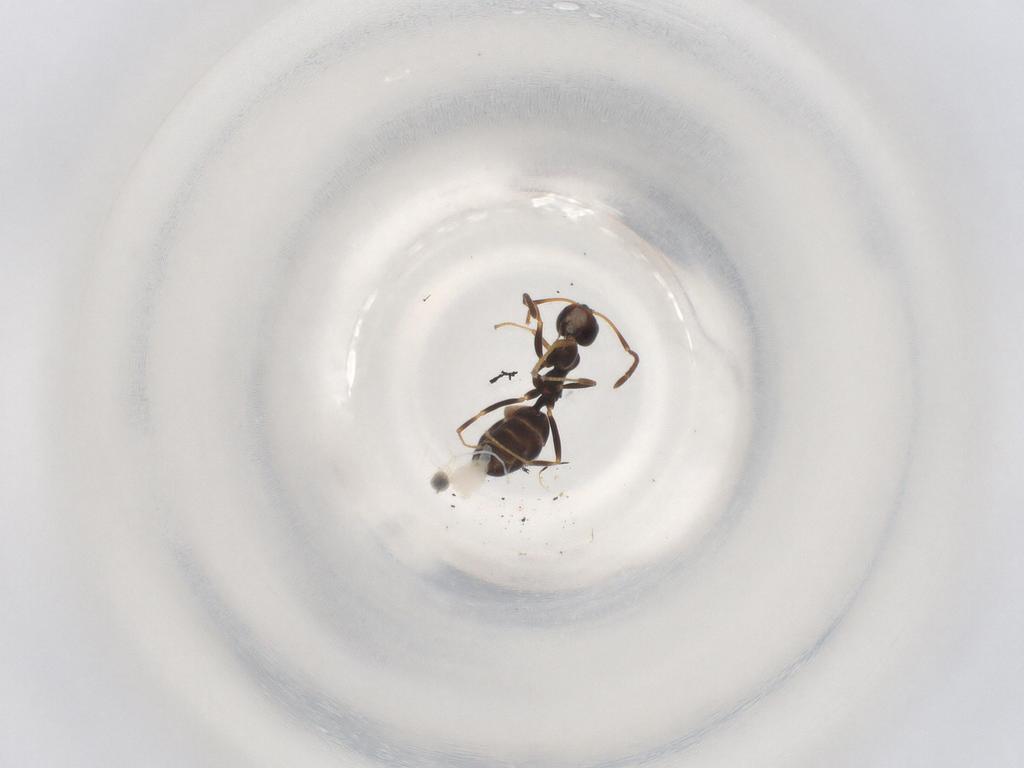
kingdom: Animalia
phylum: Arthropoda
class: Insecta
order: Hymenoptera
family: Formicidae
